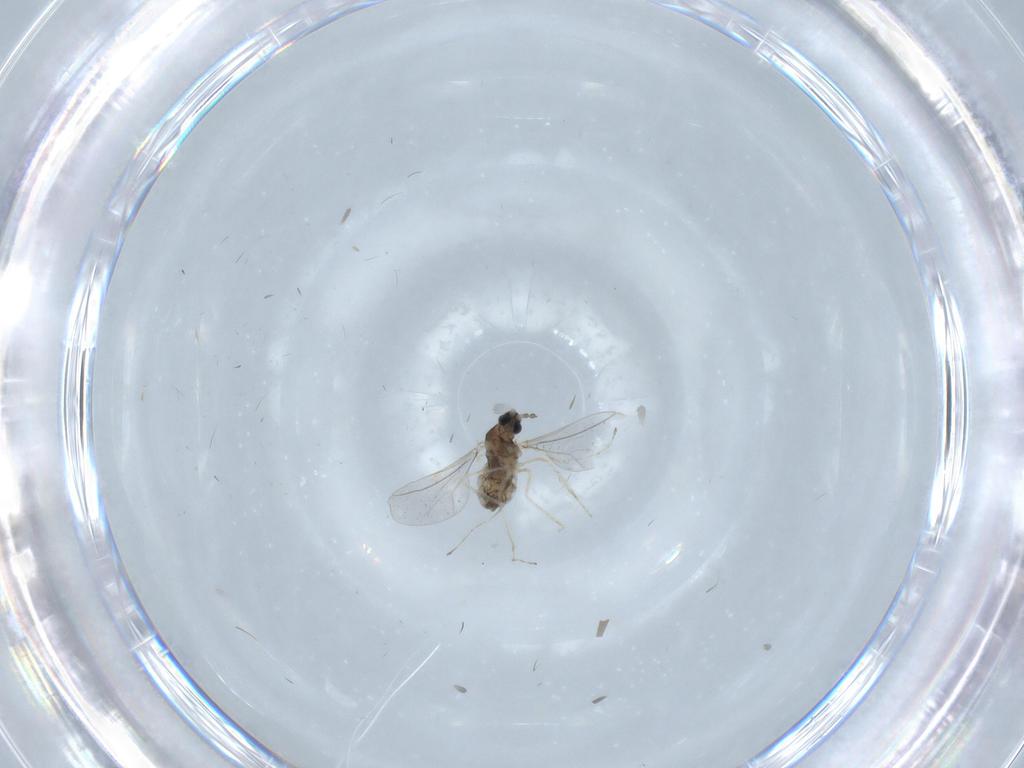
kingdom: Animalia
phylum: Arthropoda
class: Insecta
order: Diptera
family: Cecidomyiidae
